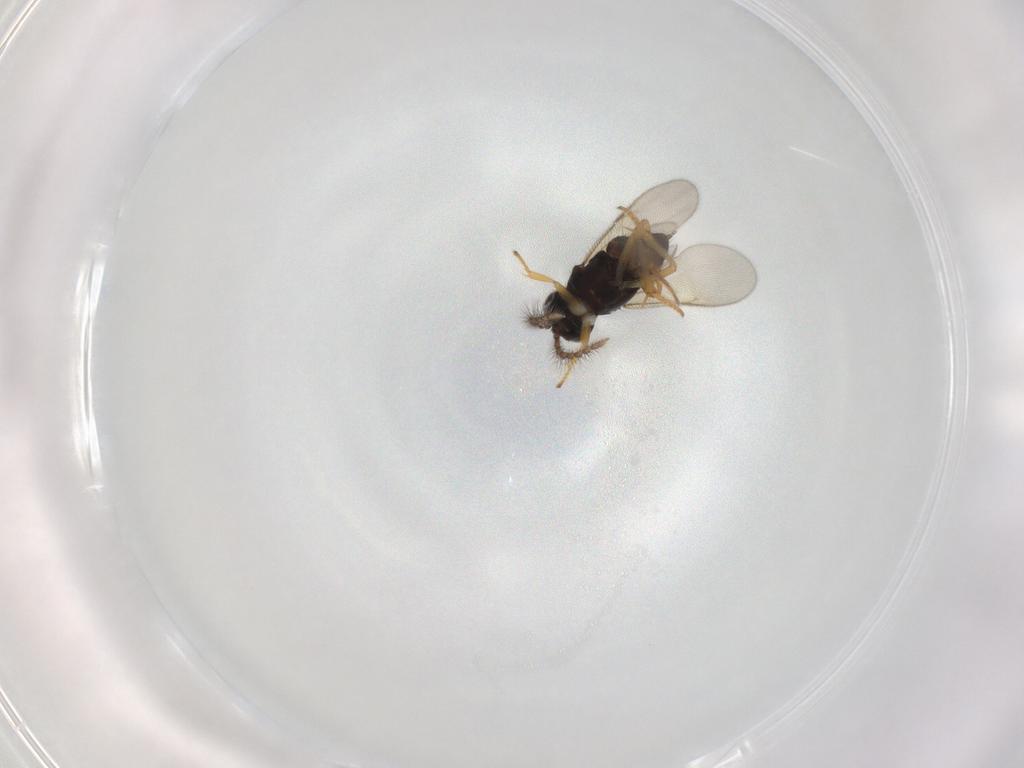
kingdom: Animalia
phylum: Arthropoda
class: Insecta
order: Hymenoptera
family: Encyrtidae
